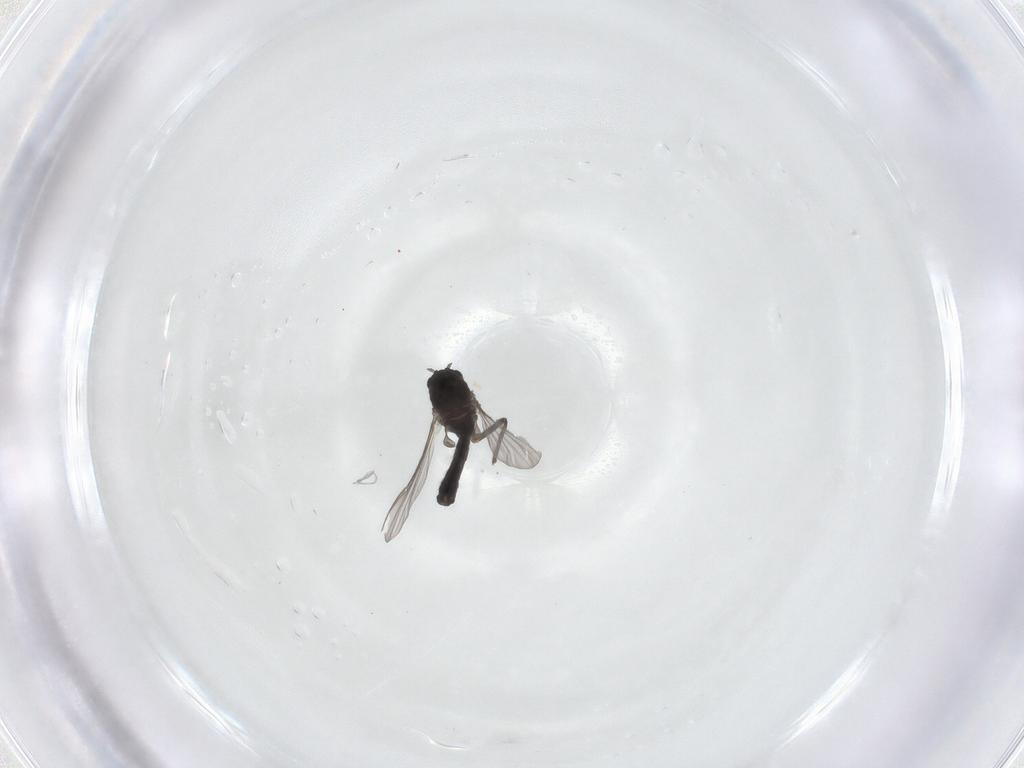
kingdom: Animalia
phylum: Arthropoda
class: Insecta
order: Diptera
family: Chironomidae
